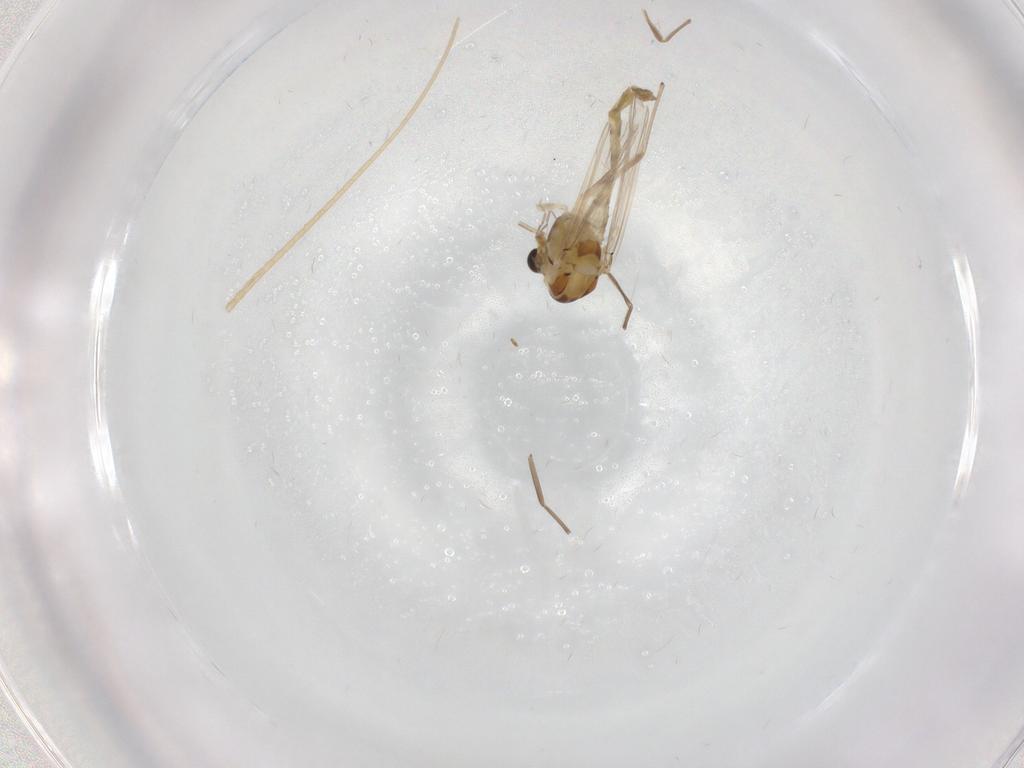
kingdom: Animalia
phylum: Arthropoda
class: Insecta
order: Diptera
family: Chironomidae
